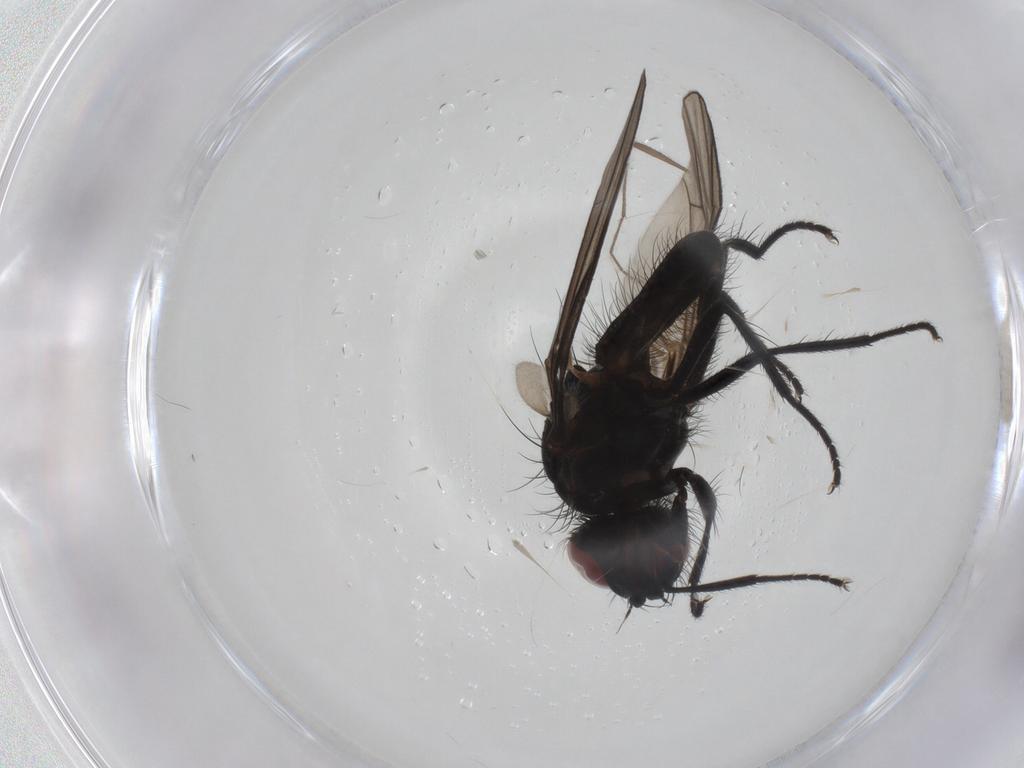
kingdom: Animalia
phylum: Arthropoda
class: Insecta
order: Diptera
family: Anthomyiidae
